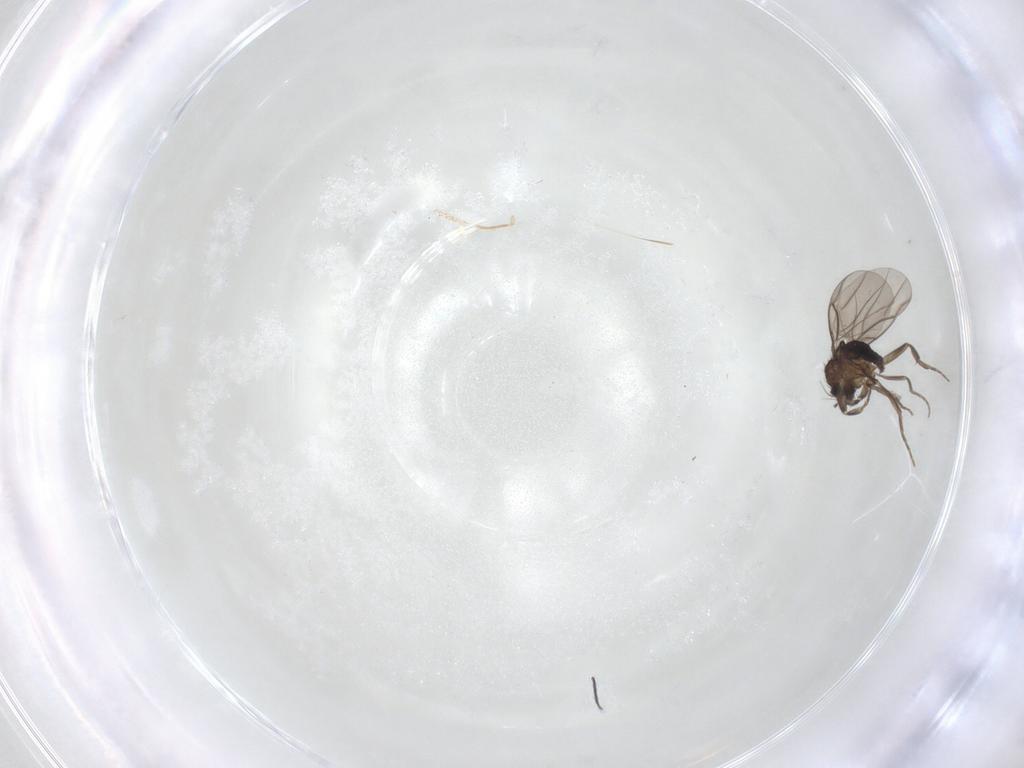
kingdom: Animalia
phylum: Arthropoda
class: Insecta
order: Diptera
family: Phoridae
